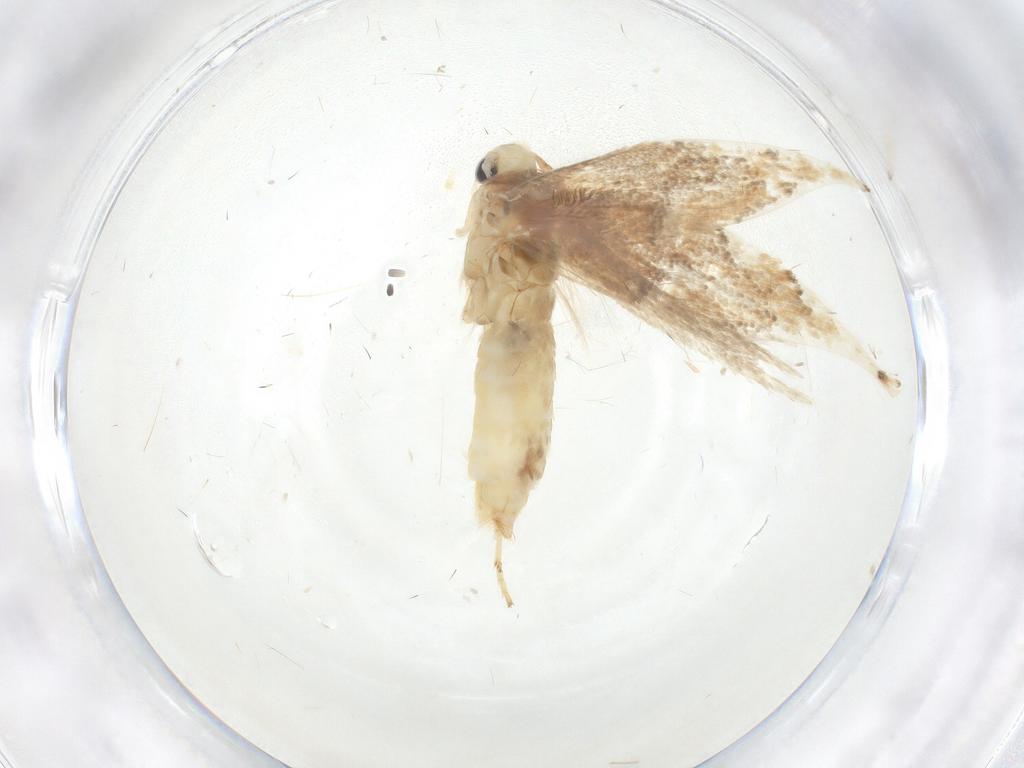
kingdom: Animalia
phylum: Arthropoda
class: Insecta
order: Lepidoptera
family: Gracillariidae
